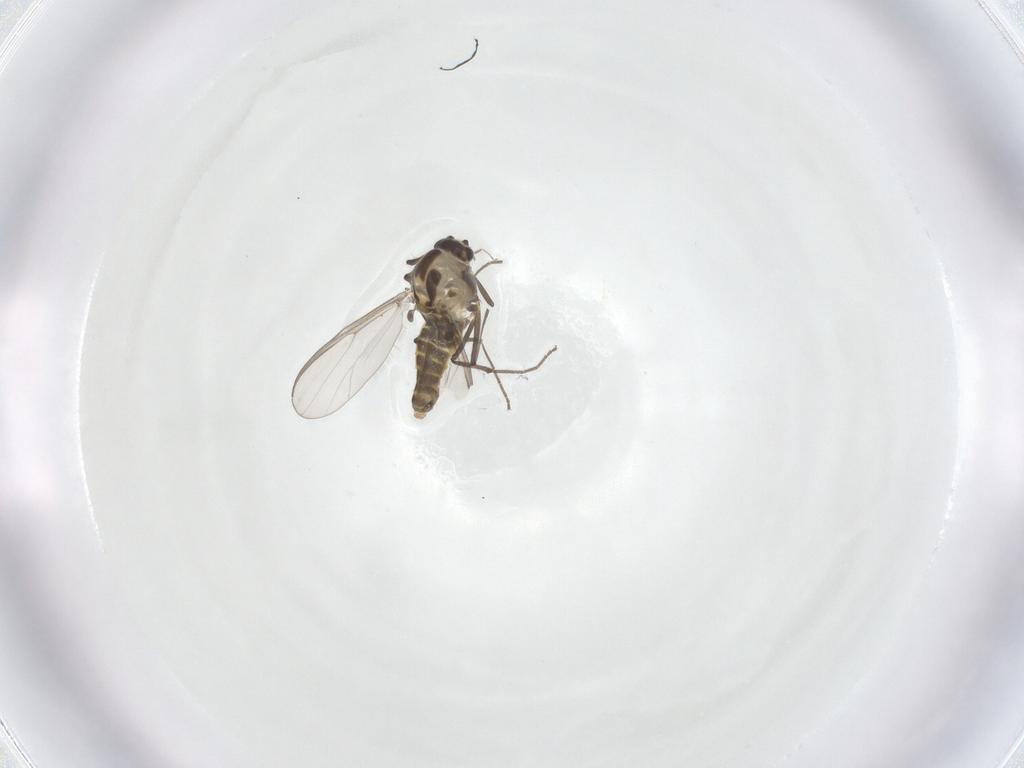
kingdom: Animalia
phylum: Arthropoda
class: Insecta
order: Diptera
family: Chironomidae
